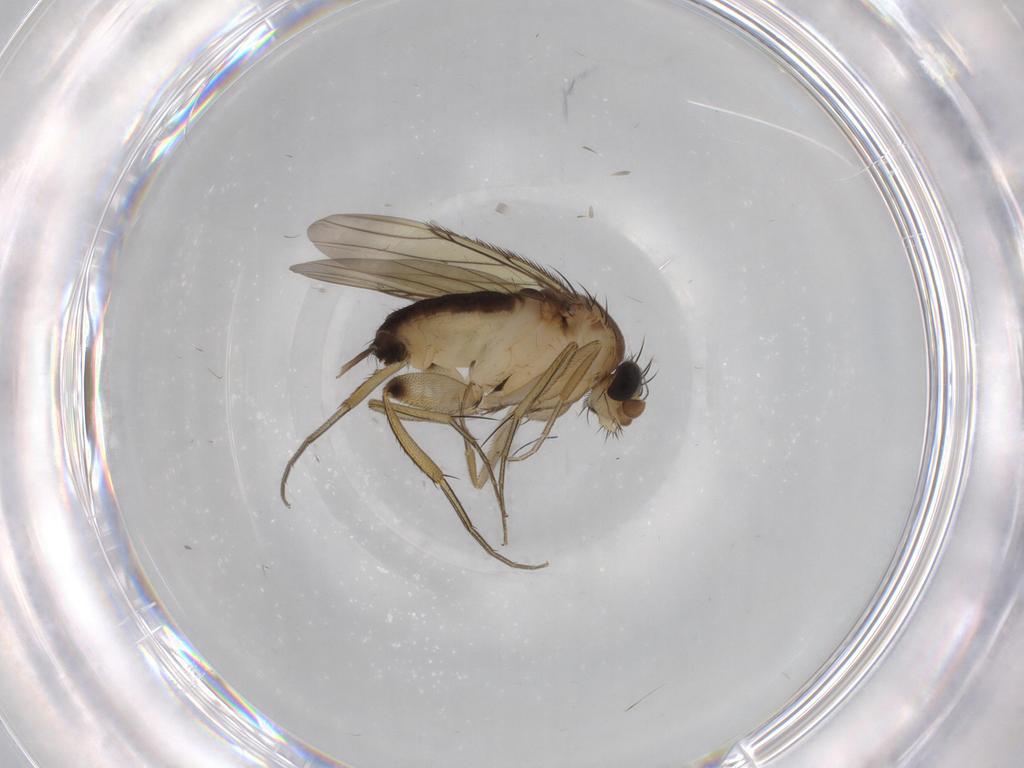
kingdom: Animalia
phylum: Arthropoda
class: Insecta
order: Diptera
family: Phoridae
